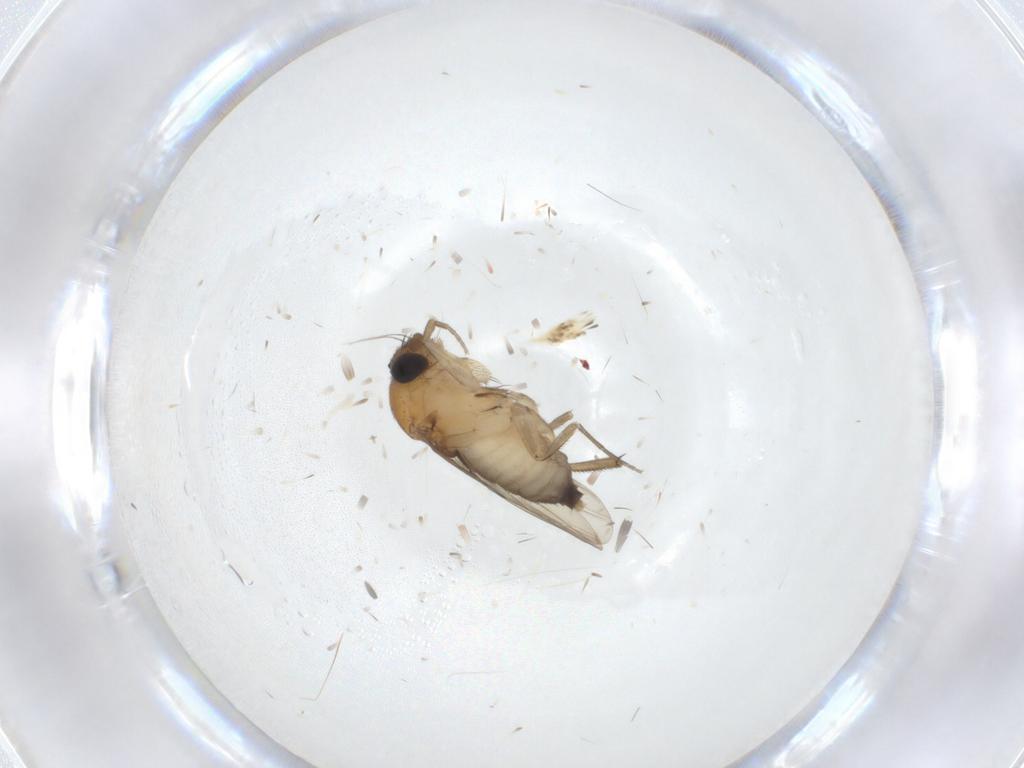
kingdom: Animalia
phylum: Arthropoda
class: Insecta
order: Diptera
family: Phoridae
